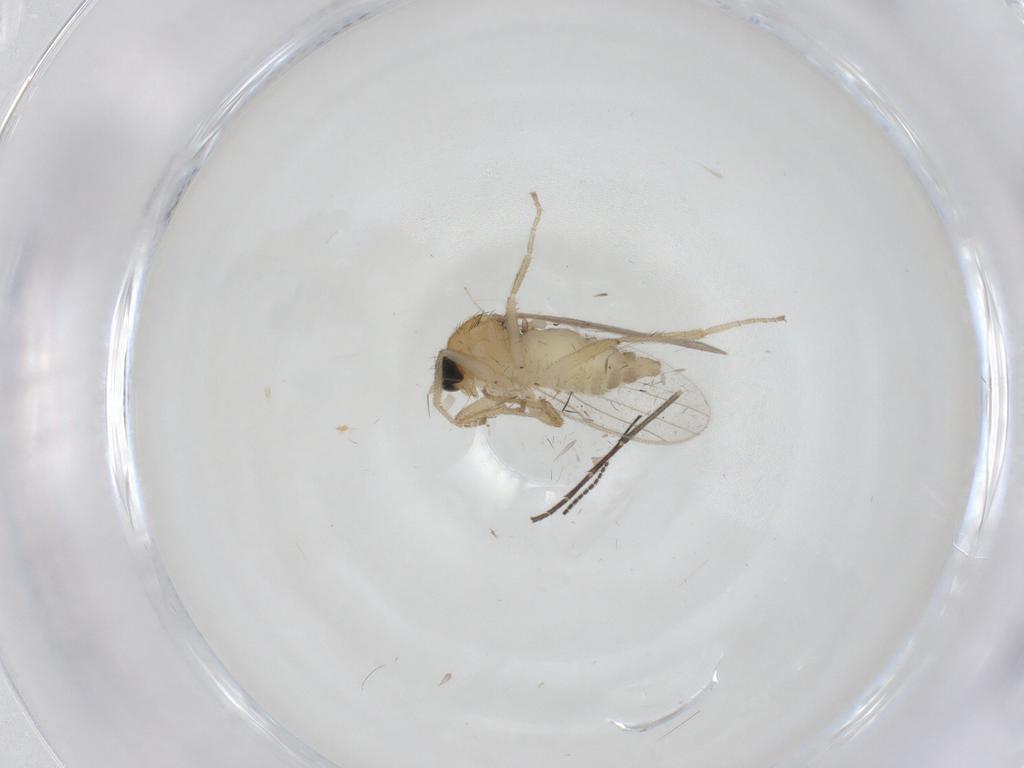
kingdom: Animalia
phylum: Arthropoda
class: Insecta
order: Diptera
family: Hybotidae
